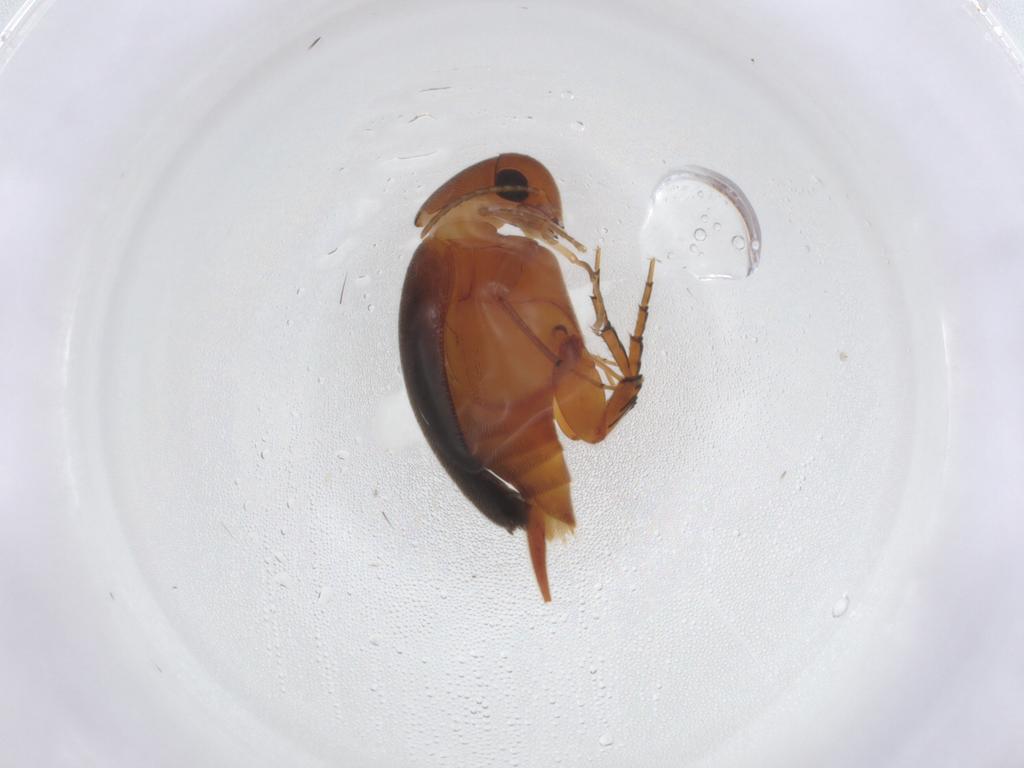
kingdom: Animalia
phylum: Arthropoda
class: Insecta
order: Coleoptera
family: Mordellidae
